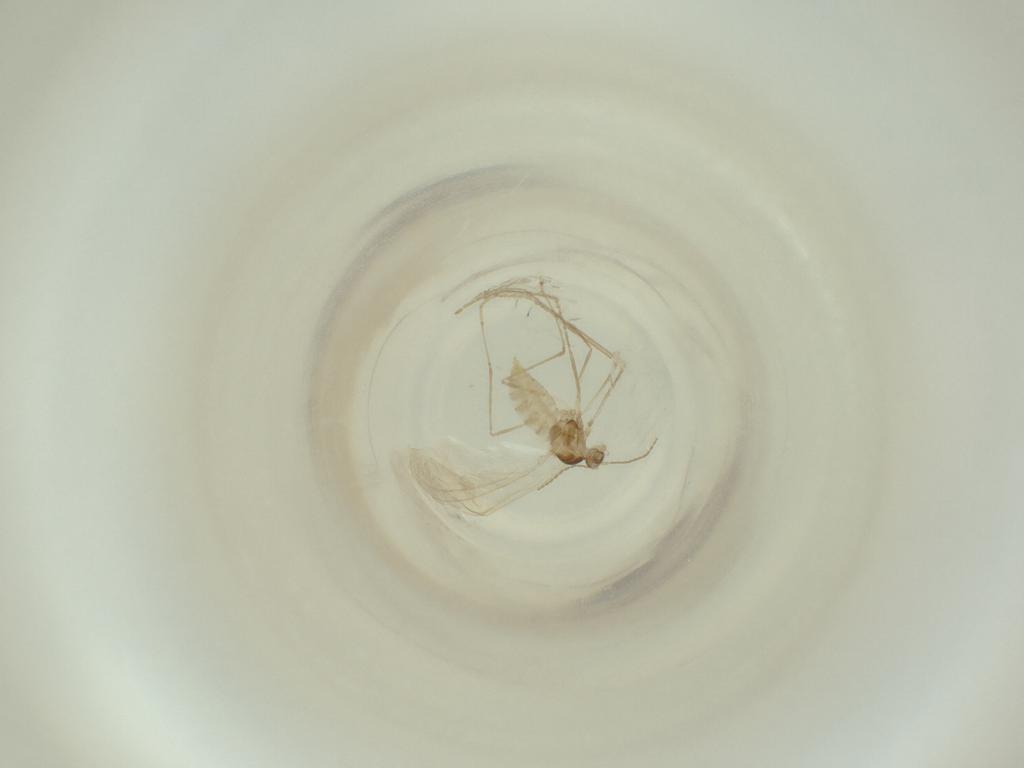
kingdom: Animalia
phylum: Arthropoda
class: Insecta
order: Diptera
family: Cecidomyiidae
